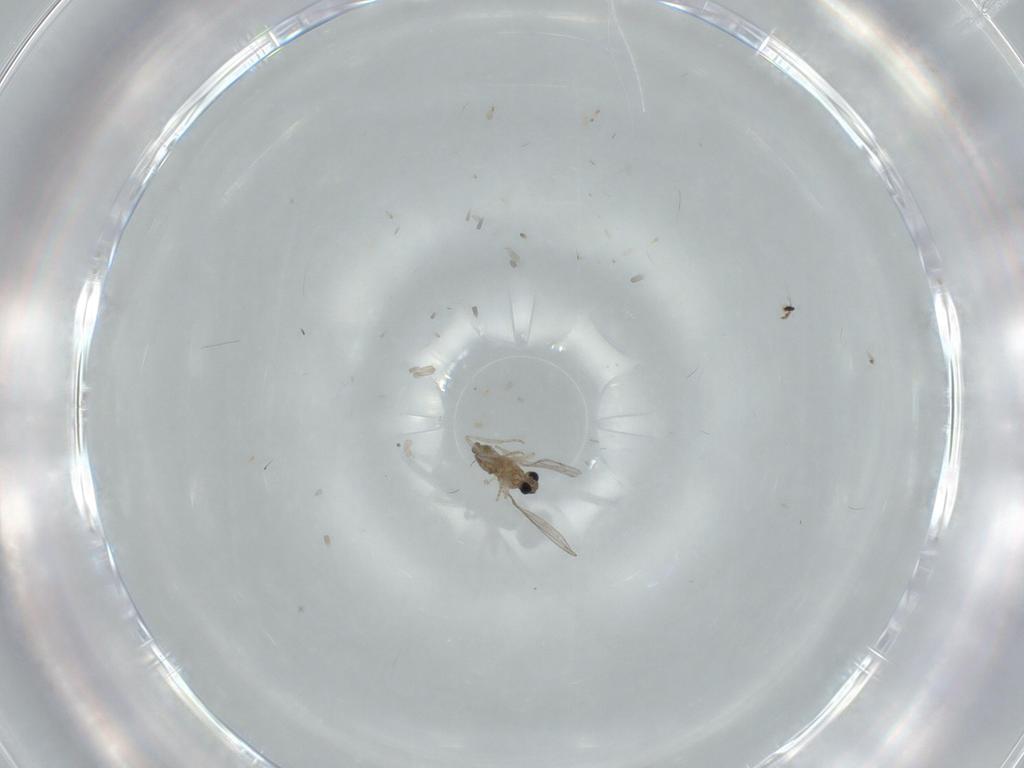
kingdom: Animalia
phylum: Arthropoda
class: Insecta
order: Diptera
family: Cecidomyiidae
